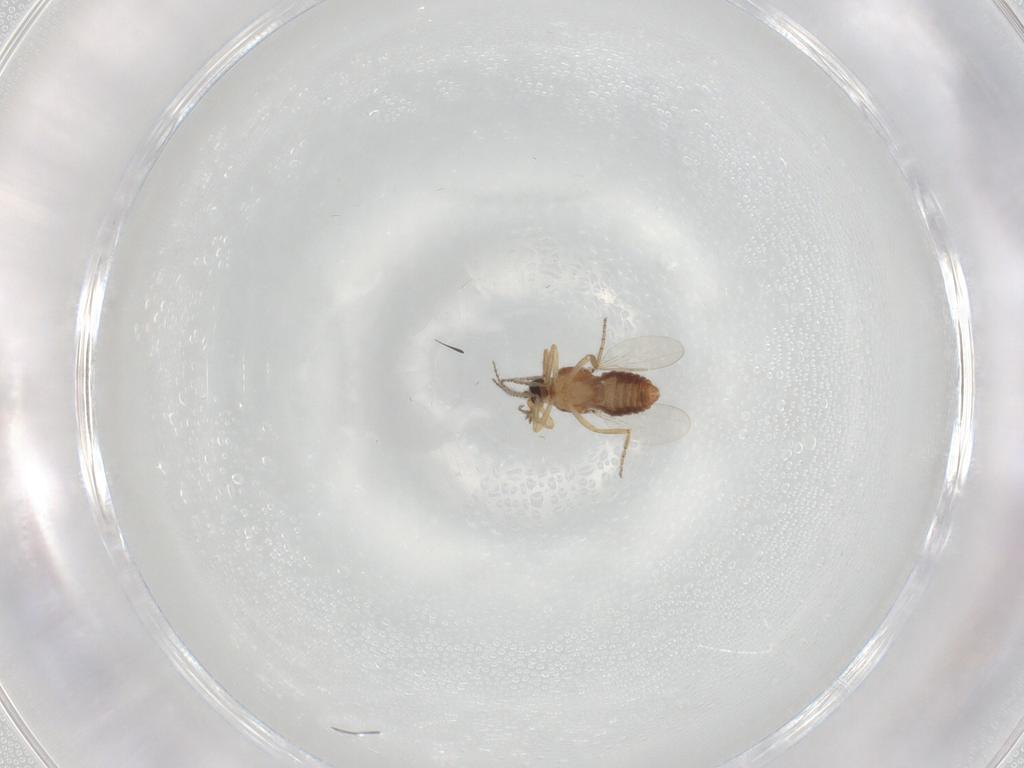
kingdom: Animalia
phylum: Arthropoda
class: Insecta
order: Diptera
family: Ceratopogonidae
